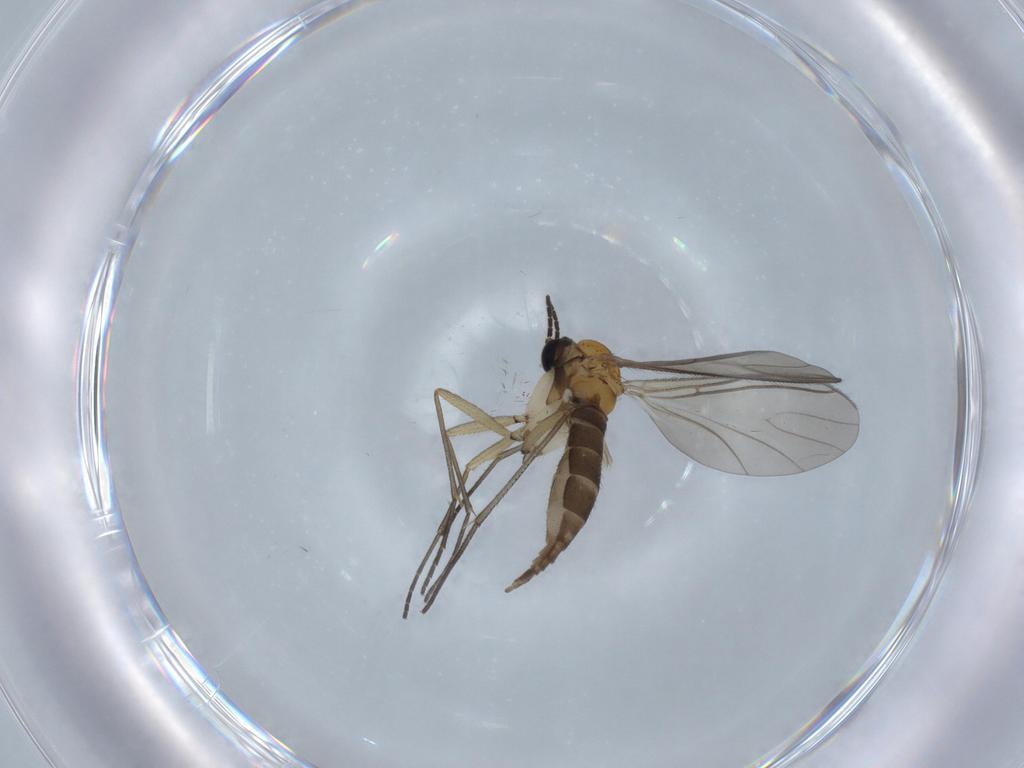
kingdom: Animalia
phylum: Arthropoda
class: Insecta
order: Diptera
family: Sciaridae
